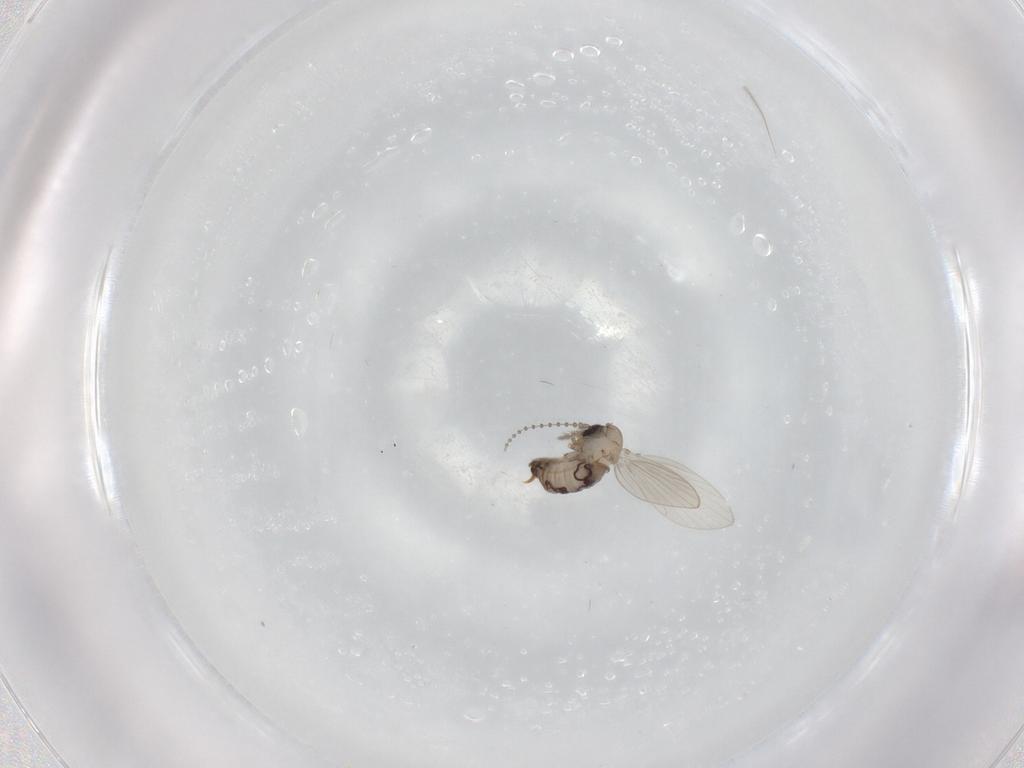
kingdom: Animalia
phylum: Arthropoda
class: Insecta
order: Diptera
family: Psychodidae
